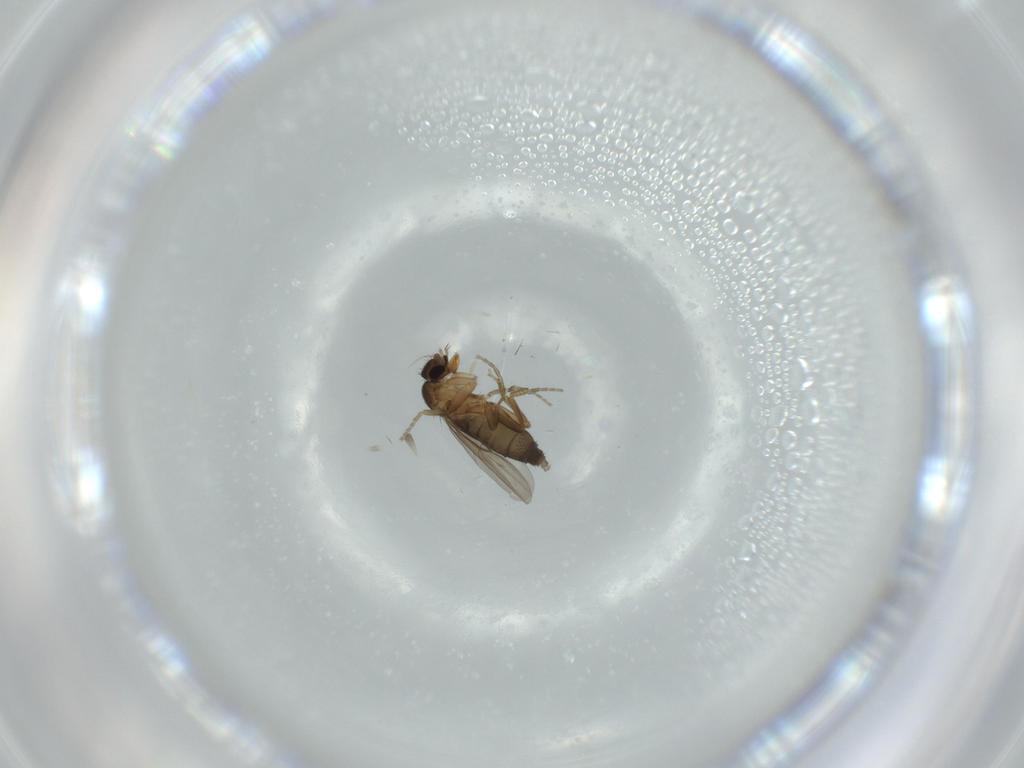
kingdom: Animalia
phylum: Arthropoda
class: Insecta
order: Diptera
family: Phoridae
